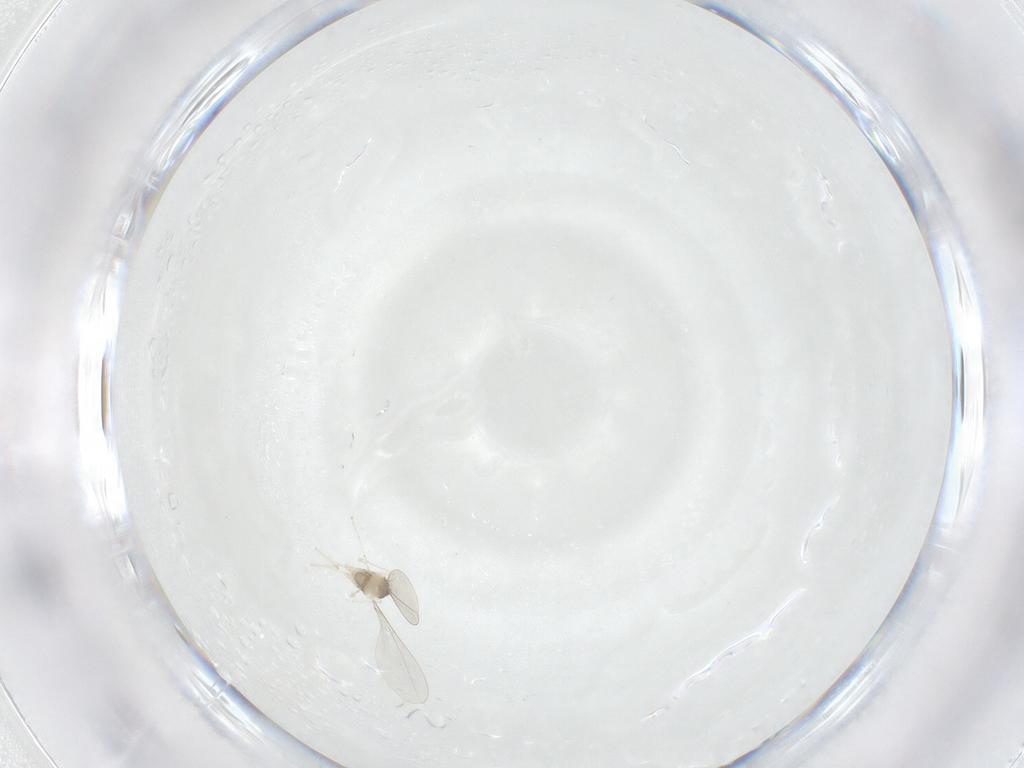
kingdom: Animalia
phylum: Arthropoda
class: Insecta
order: Diptera
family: Cecidomyiidae
